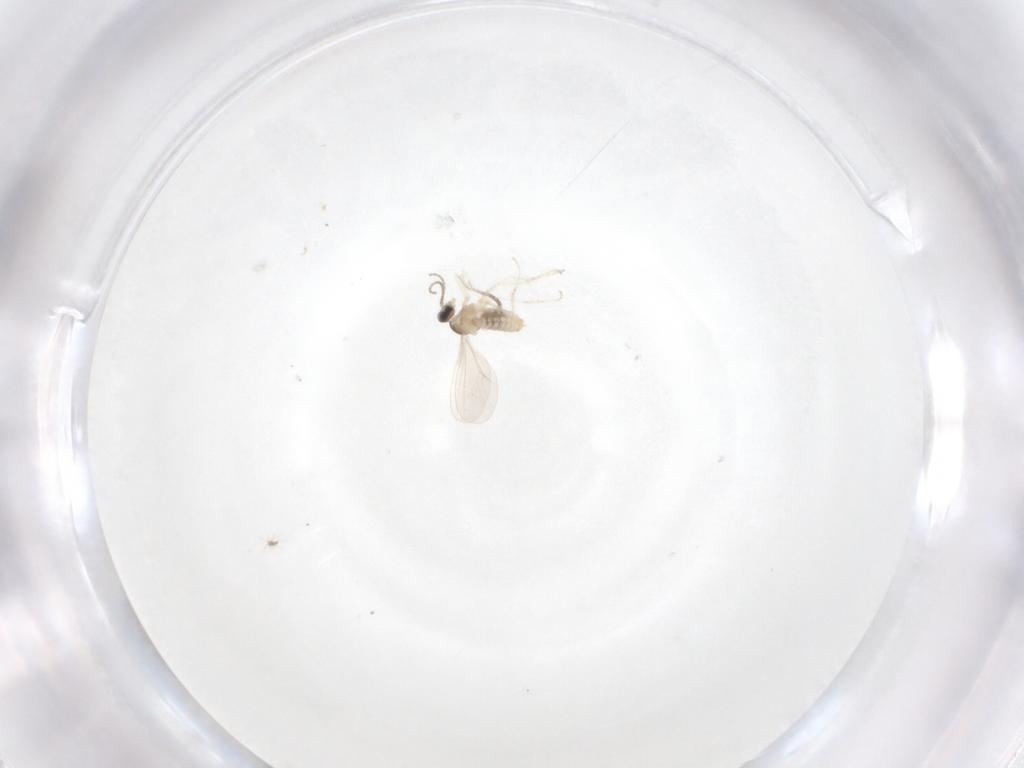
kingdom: Animalia
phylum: Arthropoda
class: Insecta
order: Diptera
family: Cecidomyiidae
